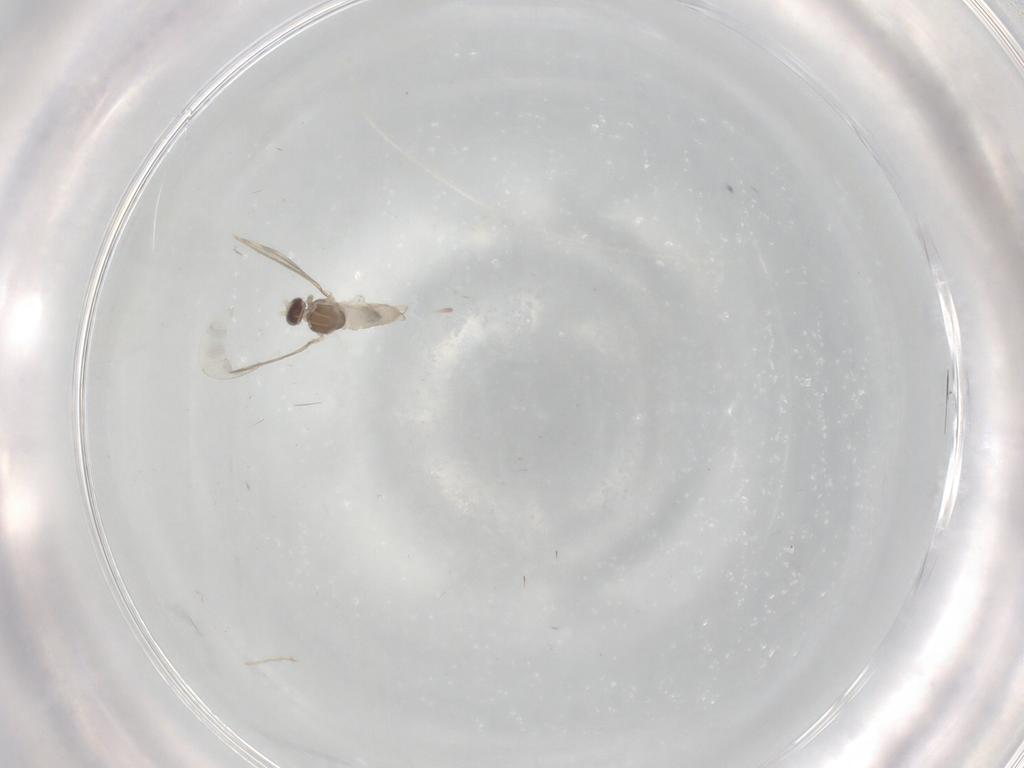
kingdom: Animalia
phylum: Arthropoda
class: Insecta
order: Diptera
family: Cecidomyiidae
